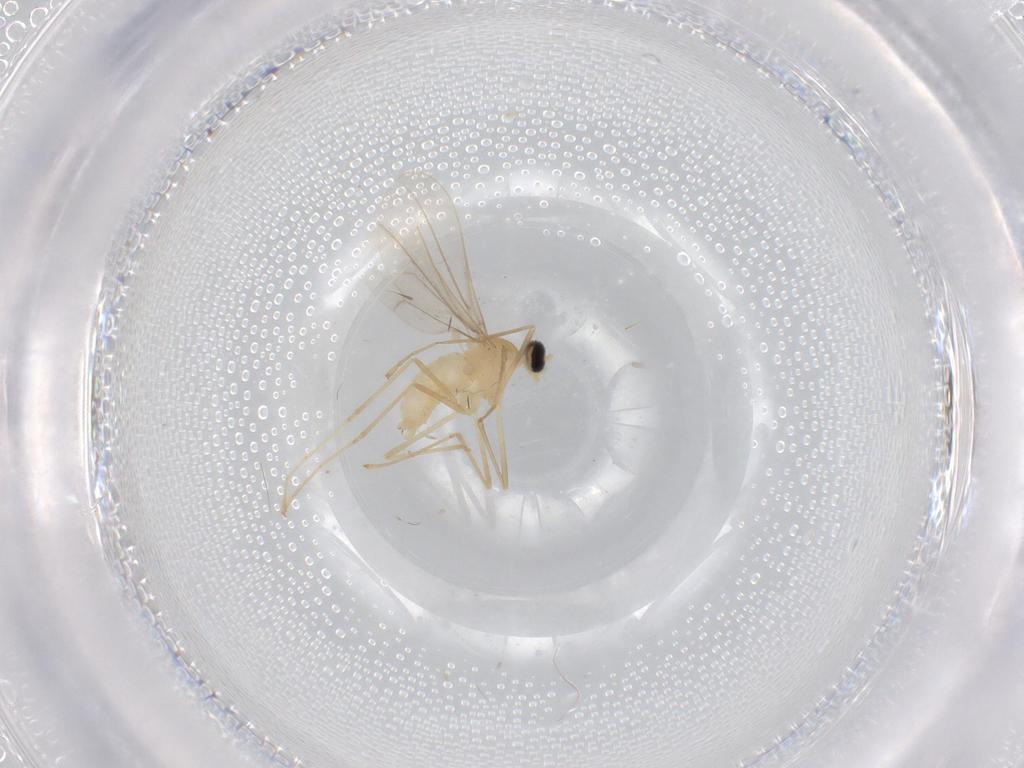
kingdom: Animalia
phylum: Arthropoda
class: Insecta
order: Diptera
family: Cecidomyiidae
